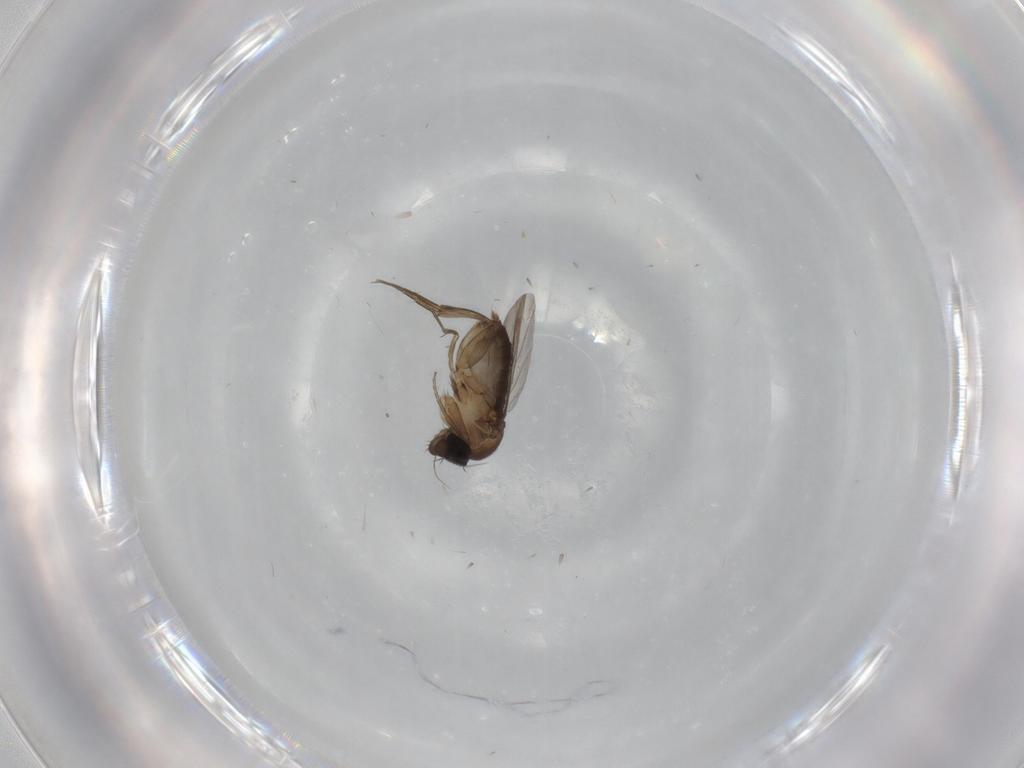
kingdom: Animalia
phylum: Arthropoda
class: Insecta
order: Diptera
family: Phoridae
